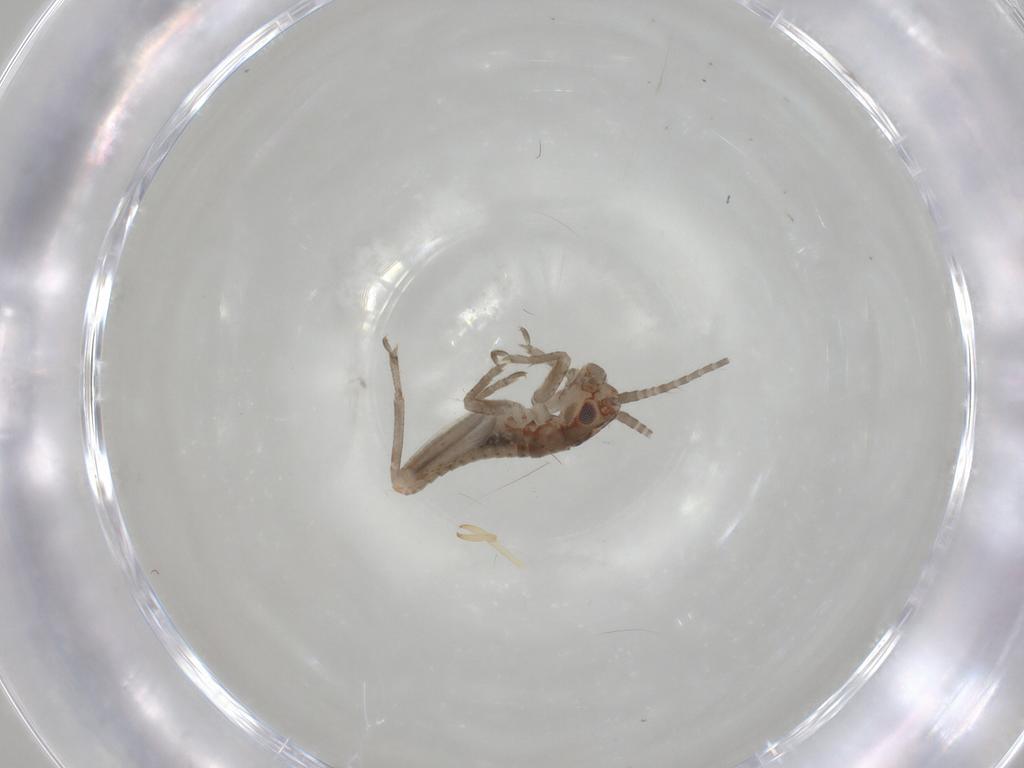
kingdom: Animalia
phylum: Arthropoda
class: Insecta
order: Orthoptera
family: Mogoplistidae
